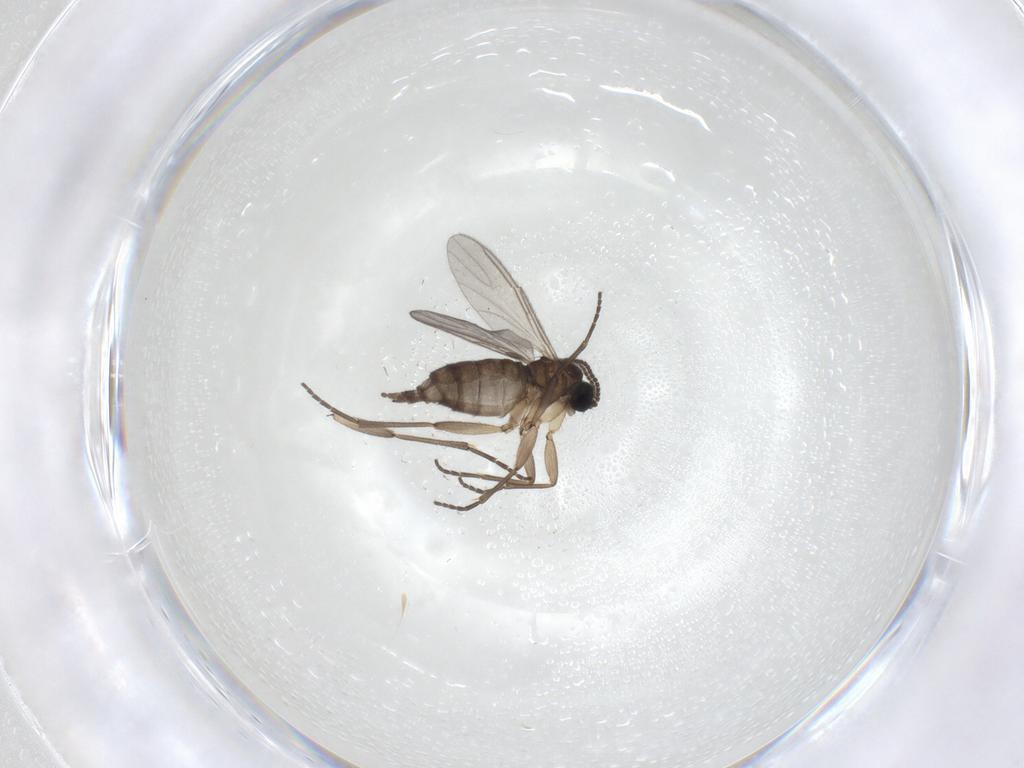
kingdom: Animalia
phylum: Arthropoda
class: Insecta
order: Diptera
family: Sciaridae
